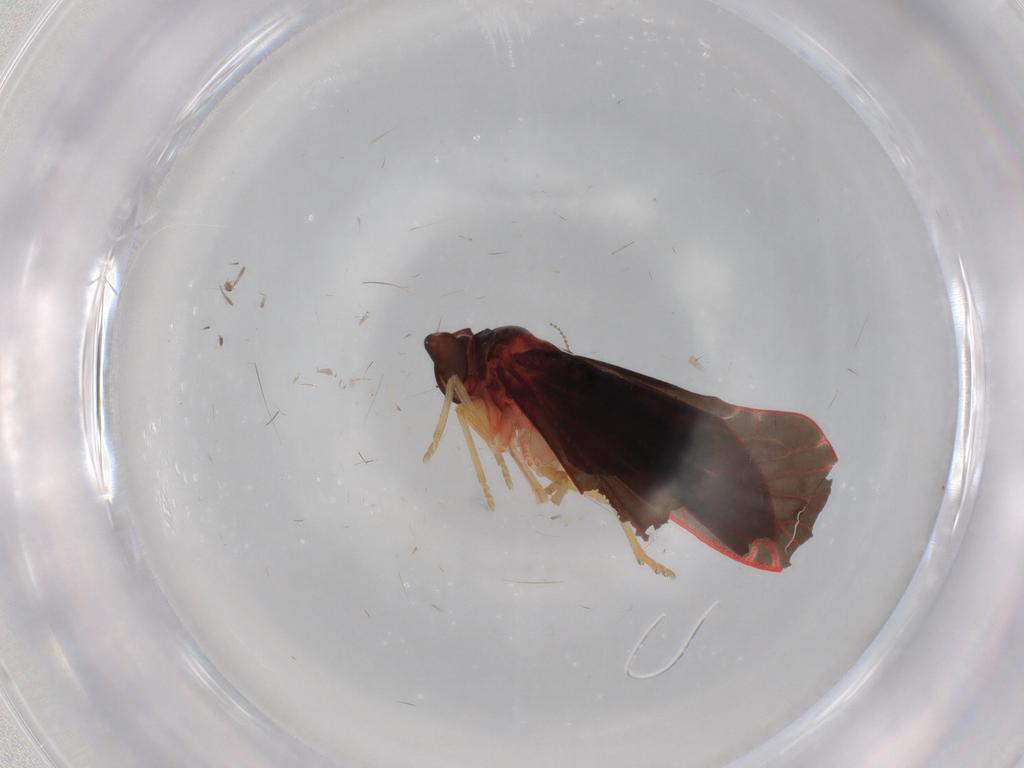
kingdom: Animalia
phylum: Arthropoda
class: Insecta
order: Hemiptera
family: Derbidae
